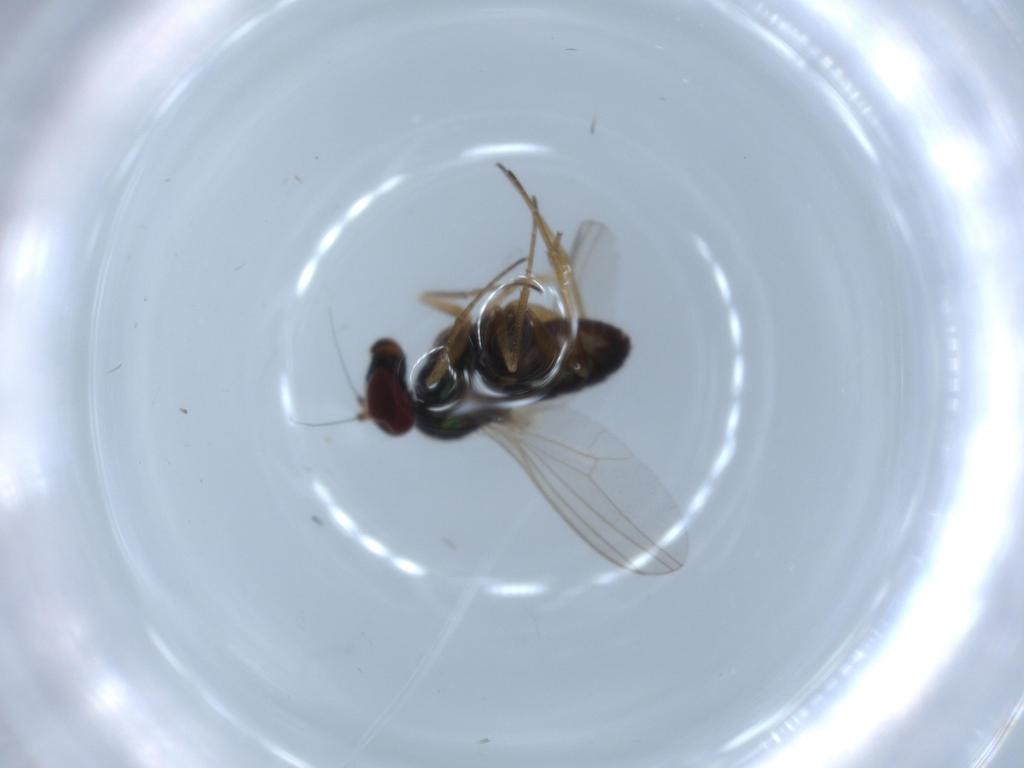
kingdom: Animalia
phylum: Arthropoda
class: Insecta
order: Diptera
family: Dolichopodidae
